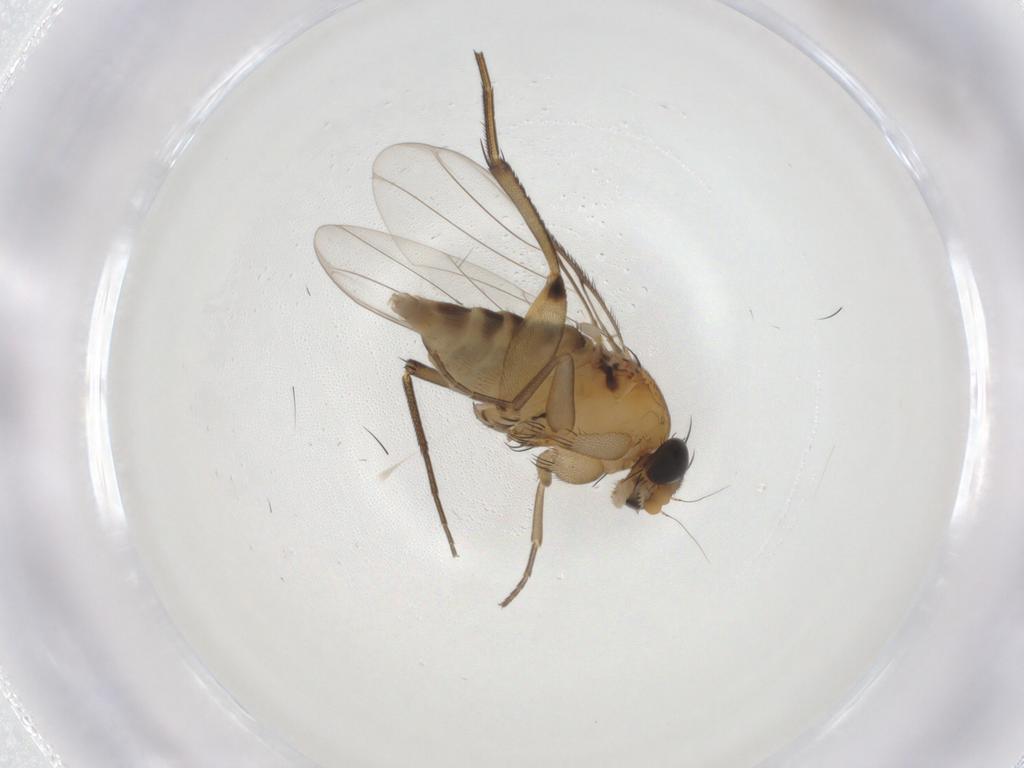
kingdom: Animalia
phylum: Arthropoda
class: Insecta
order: Diptera
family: Phoridae
